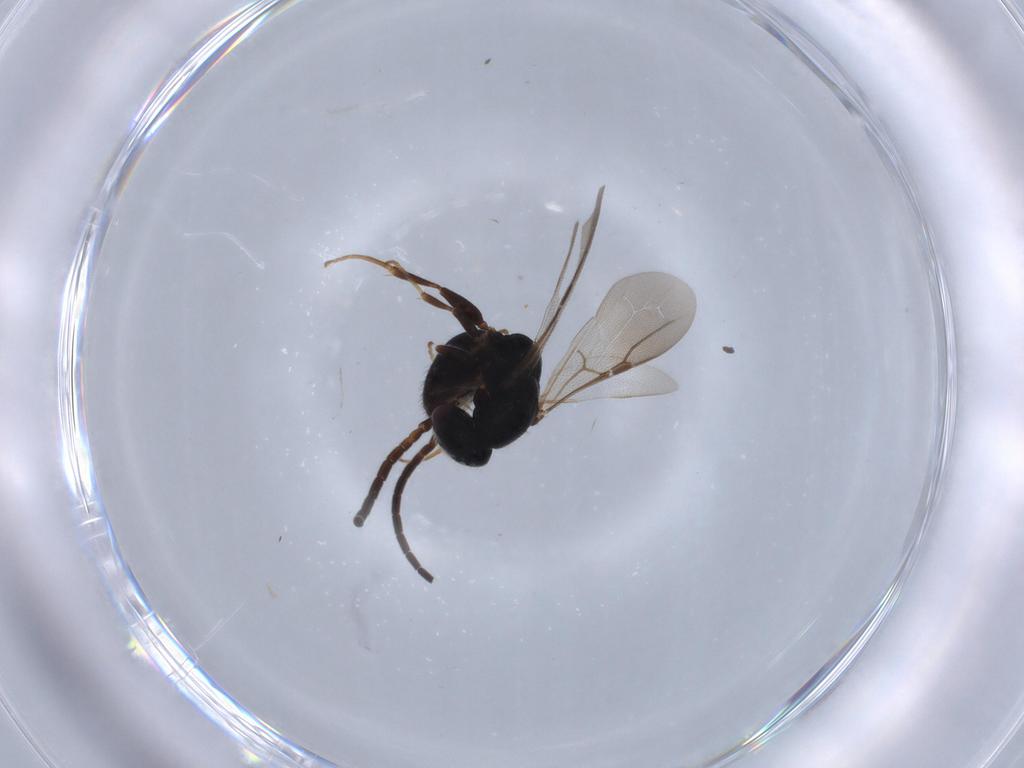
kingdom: Animalia
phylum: Arthropoda
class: Insecta
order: Hymenoptera
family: Bethylidae
